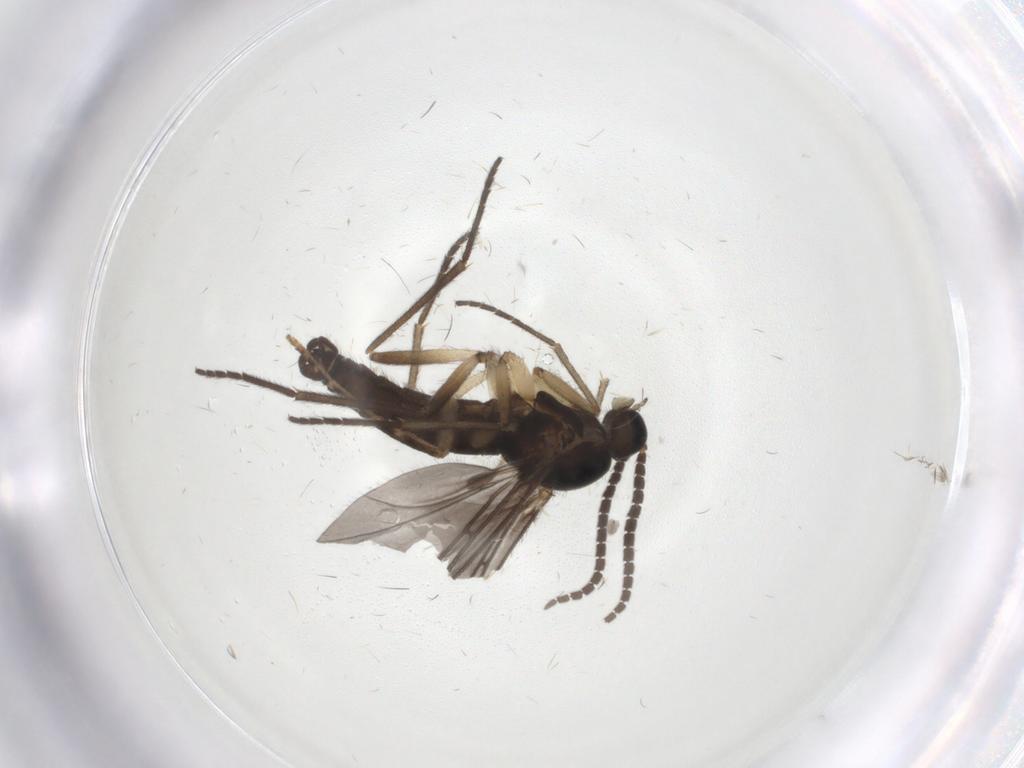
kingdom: Animalia
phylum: Arthropoda
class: Insecta
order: Diptera
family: Sciaridae
